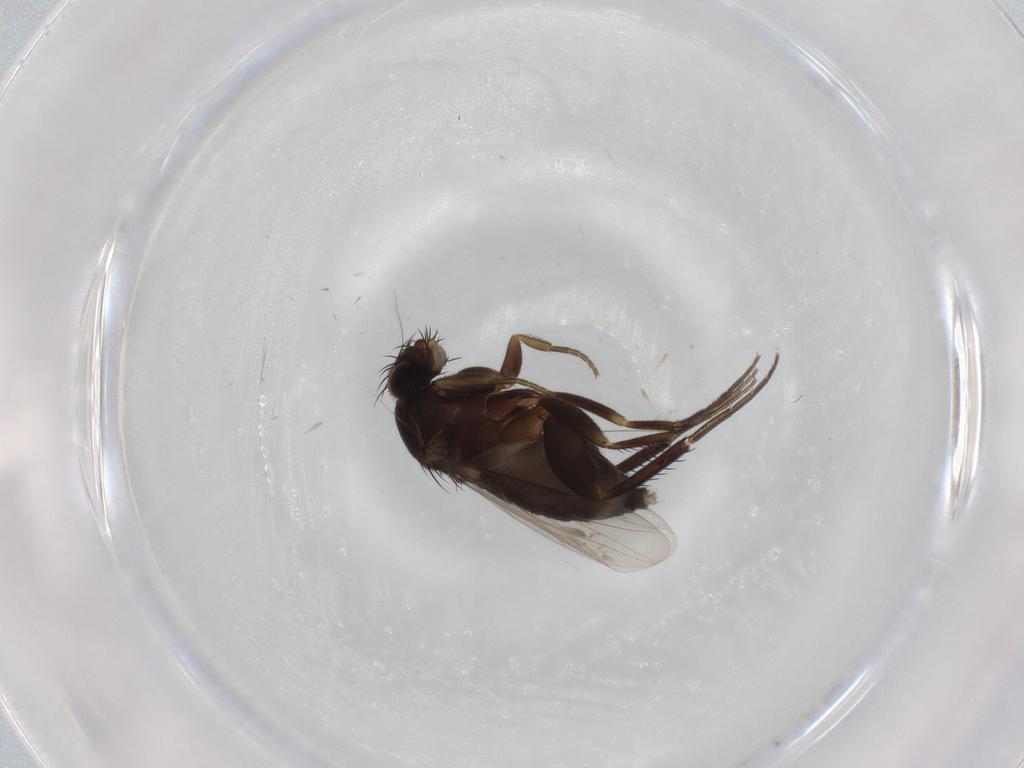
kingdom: Animalia
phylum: Arthropoda
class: Insecta
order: Diptera
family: Phoridae
